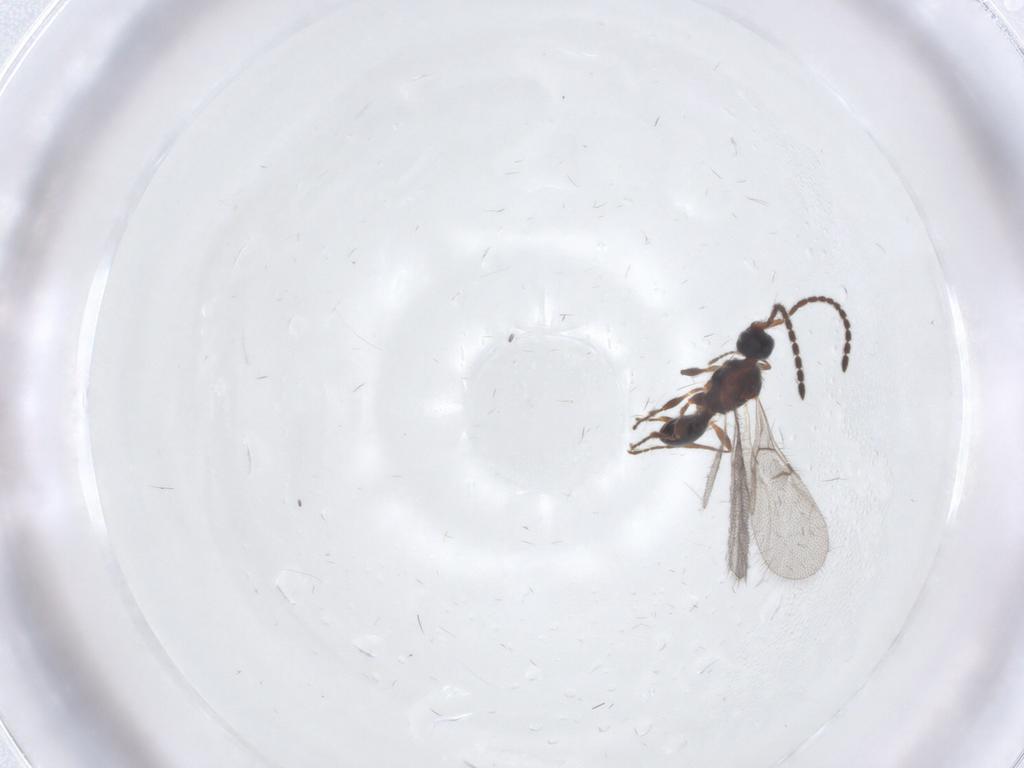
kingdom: Animalia
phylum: Arthropoda
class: Insecta
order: Hymenoptera
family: Diapriidae
